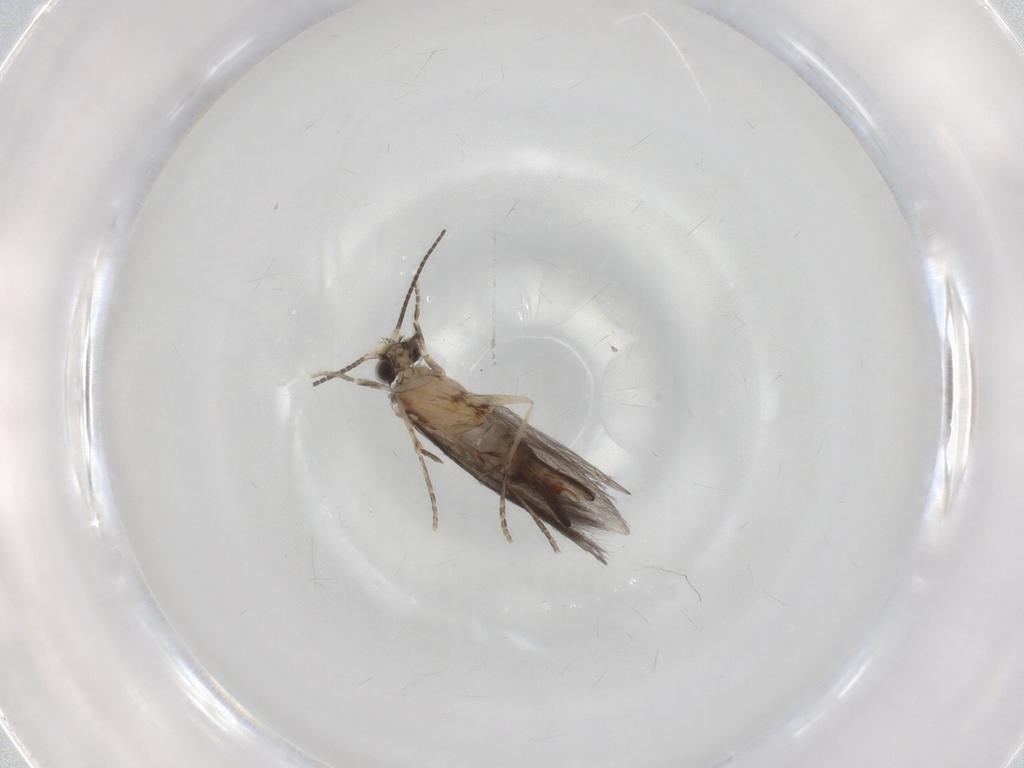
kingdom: Animalia
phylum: Arthropoda
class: Insecta
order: Trichoptera
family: Hydroptilidae
